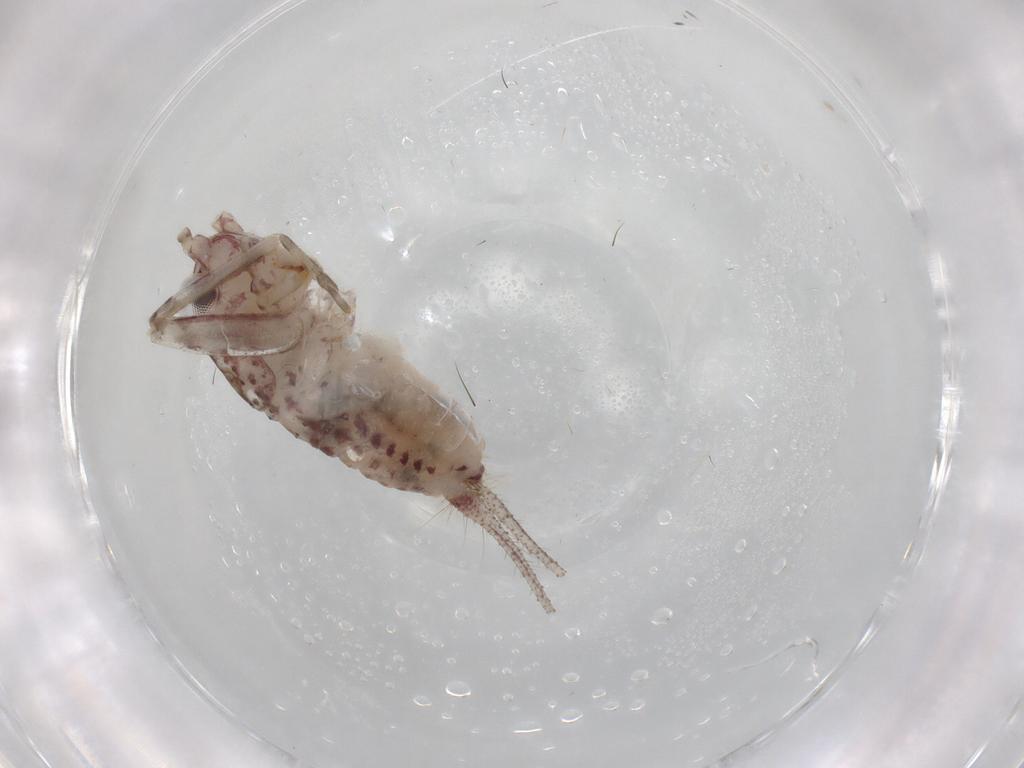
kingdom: Animalia
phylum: Arthropoda
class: Insecta
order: Orthoptera
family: Trigonidiidae
